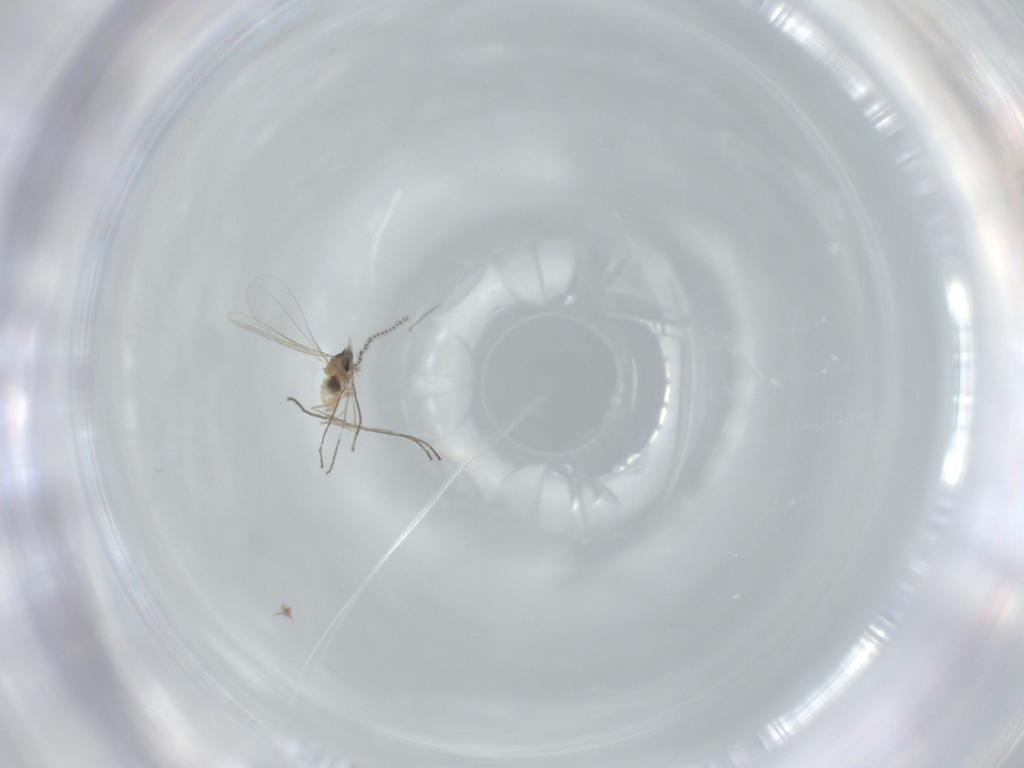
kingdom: Animalia
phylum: Arthropoda
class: Insecta
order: Diptera
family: Cecidomyiidae
